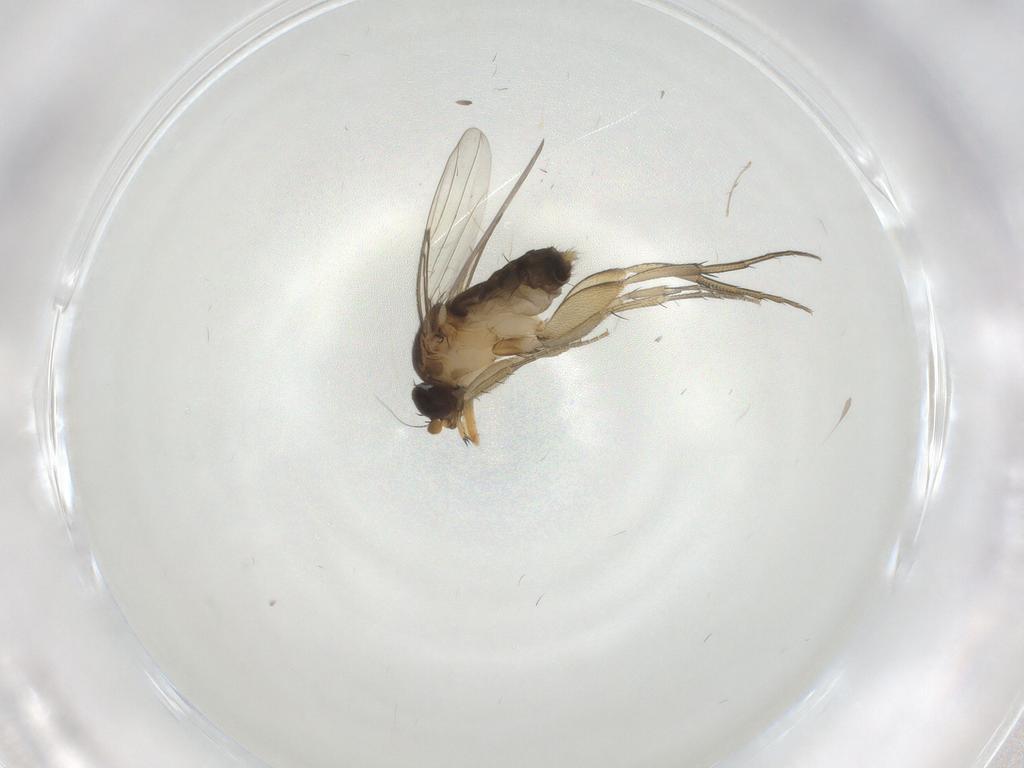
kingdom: Animalia
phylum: Arthropoda
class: Insecta
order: Diptera
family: Phoridae
